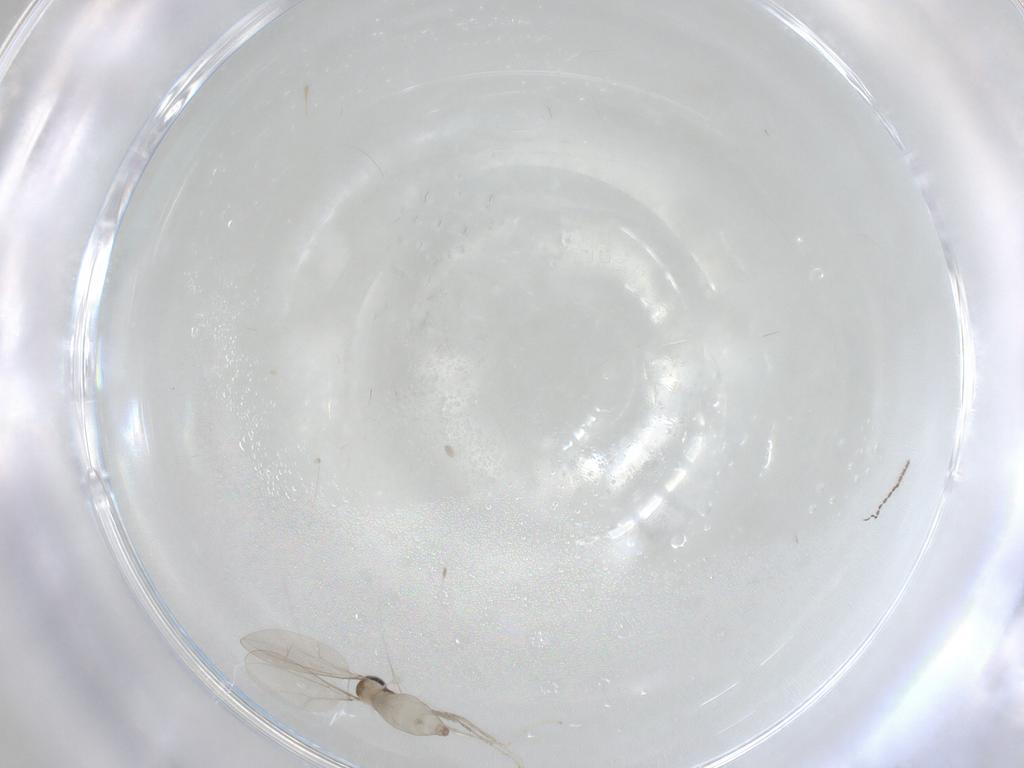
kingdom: Animalia
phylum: Arthropoda
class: Insecta
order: Diptera
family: Cecidomyiidae
